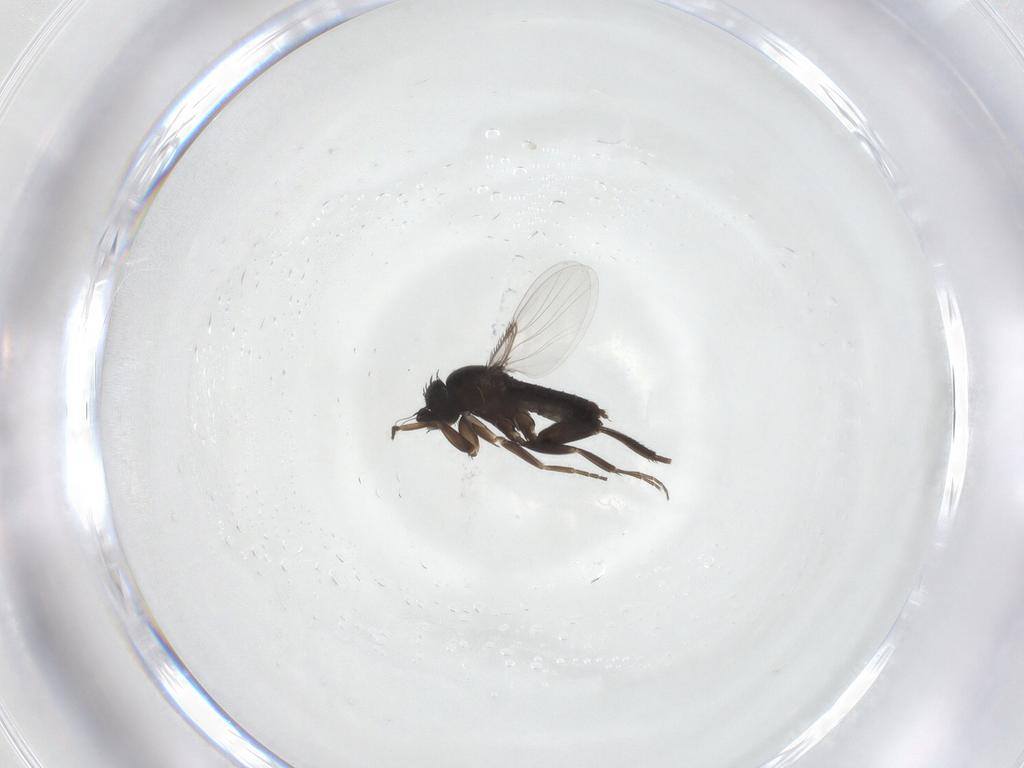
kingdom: Animalia
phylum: Arthropoda
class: Insecta
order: Diptera
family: Phoridae
